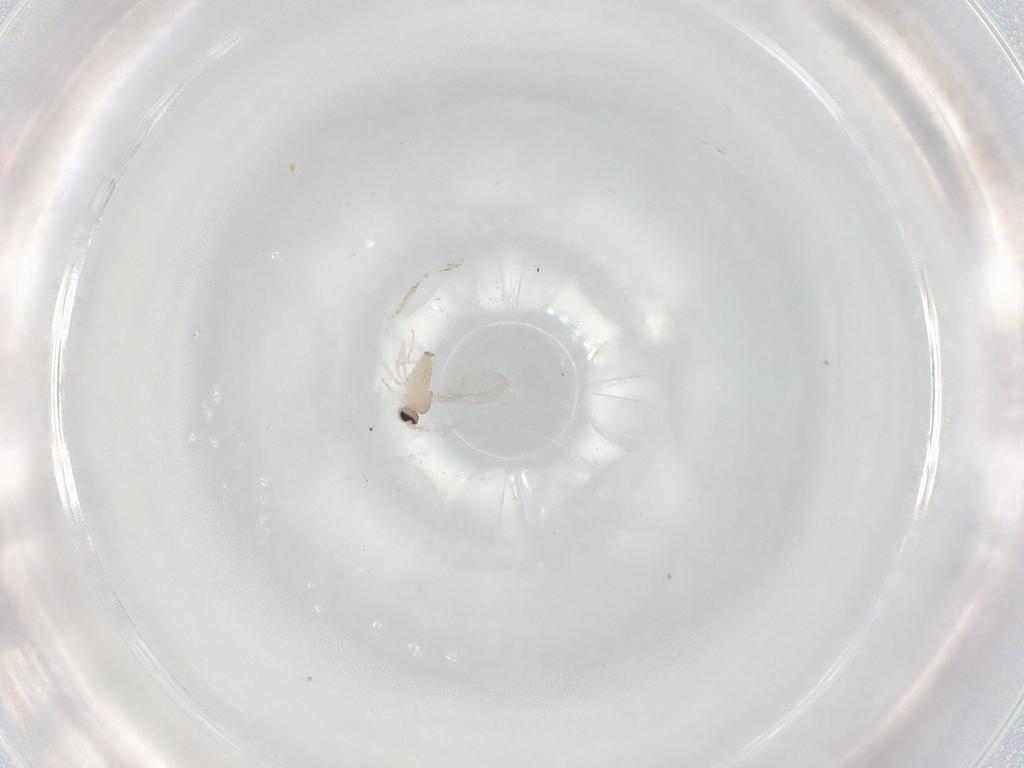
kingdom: Animalia
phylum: Arthropoda
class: Insecta
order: Diptera
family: Cecidomyiidae
